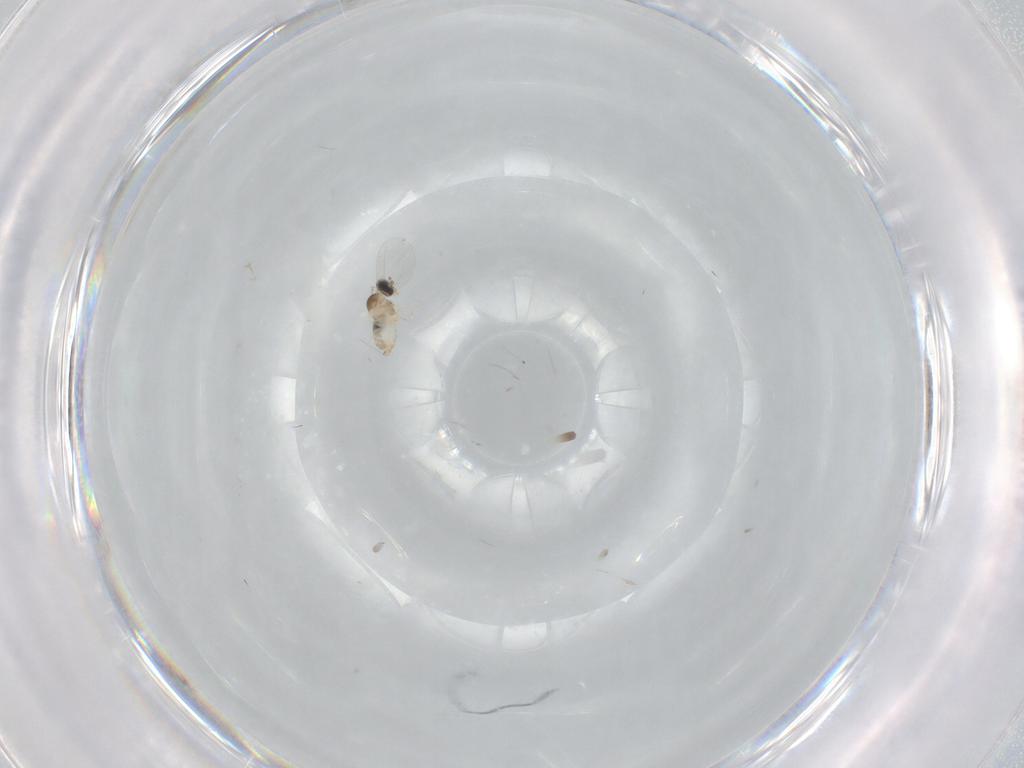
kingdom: Animalia
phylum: Arthropoda
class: Insecta
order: Diptera
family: Cecidomyiidae
